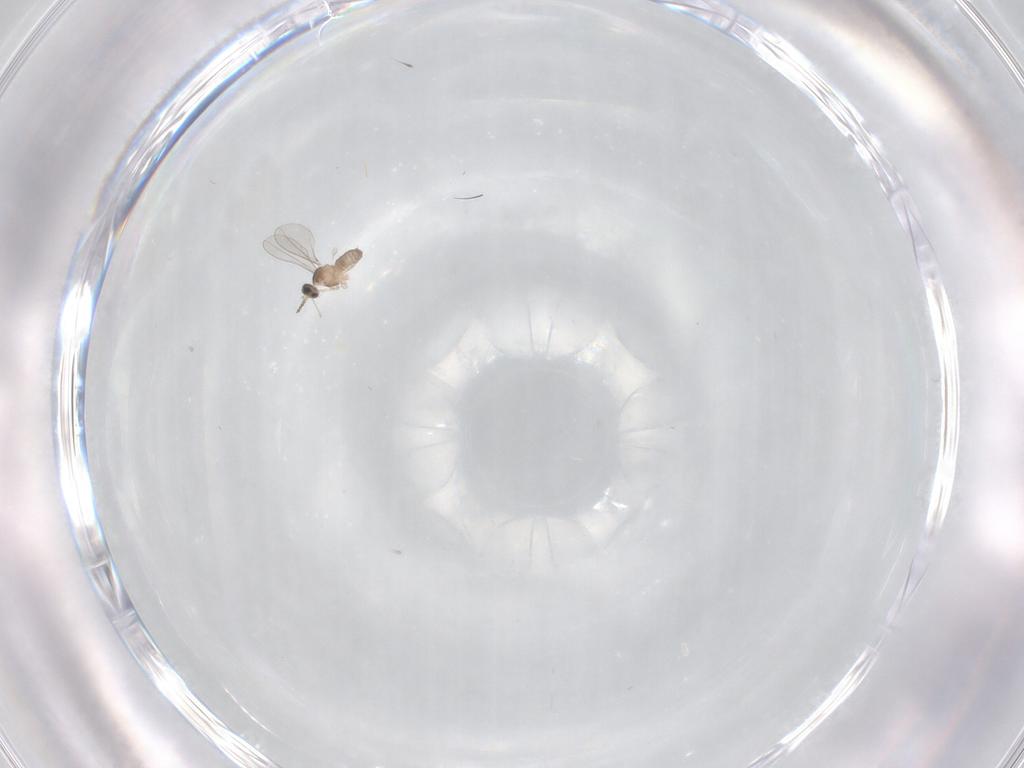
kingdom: Animalia
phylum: Arthropoda
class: Insecta
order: Diptera
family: Cecidomyiidae
